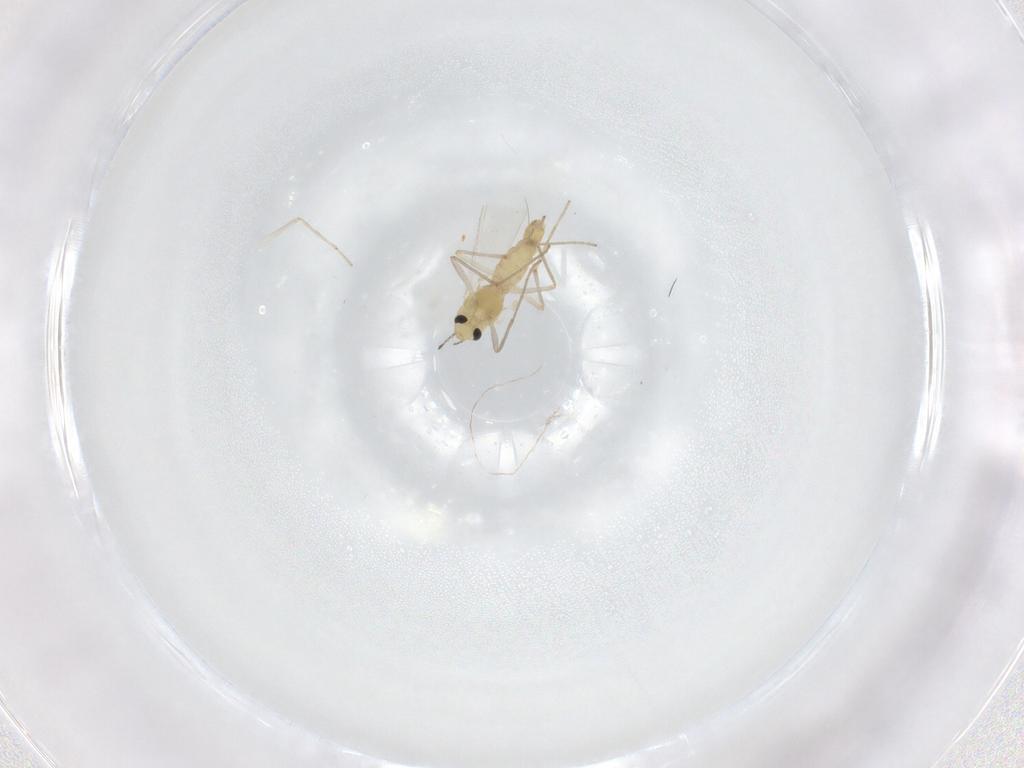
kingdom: Animalia
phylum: Arthropoda
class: Insecta
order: Diptera
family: Chironomidae
